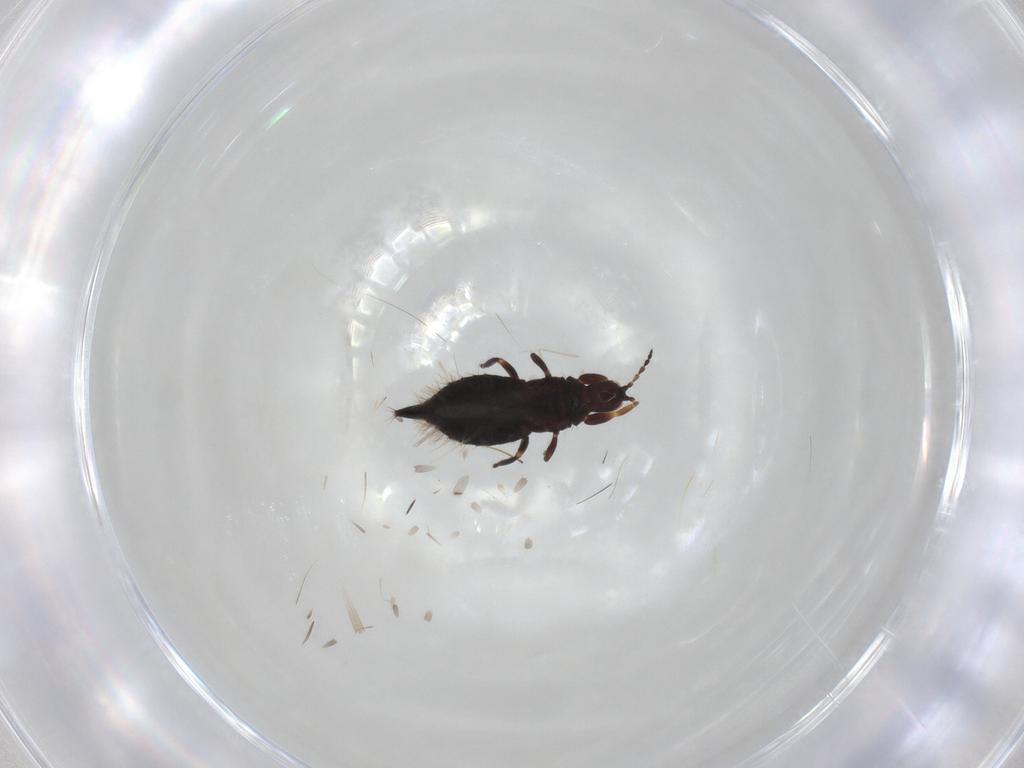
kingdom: Animalia
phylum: Arthropoda
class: Insecta
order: Thysanoptera
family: Phlaeothripidae
